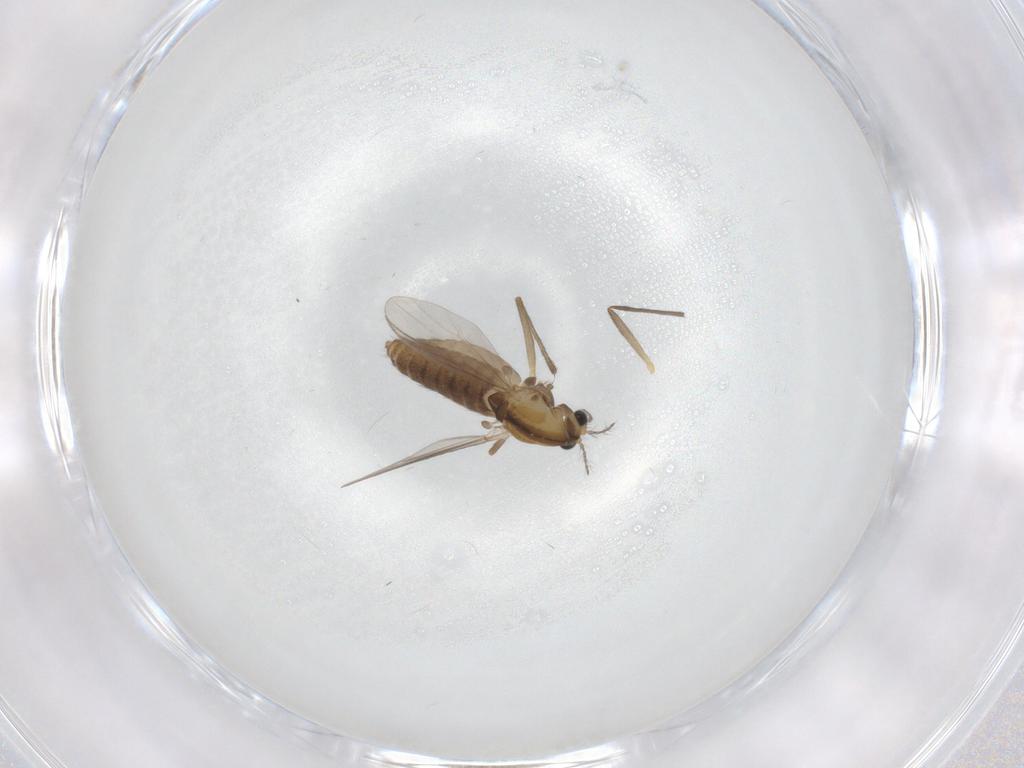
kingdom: Animalia
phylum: Arthropoda
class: Insecta
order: Diptera
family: Chironomidae
